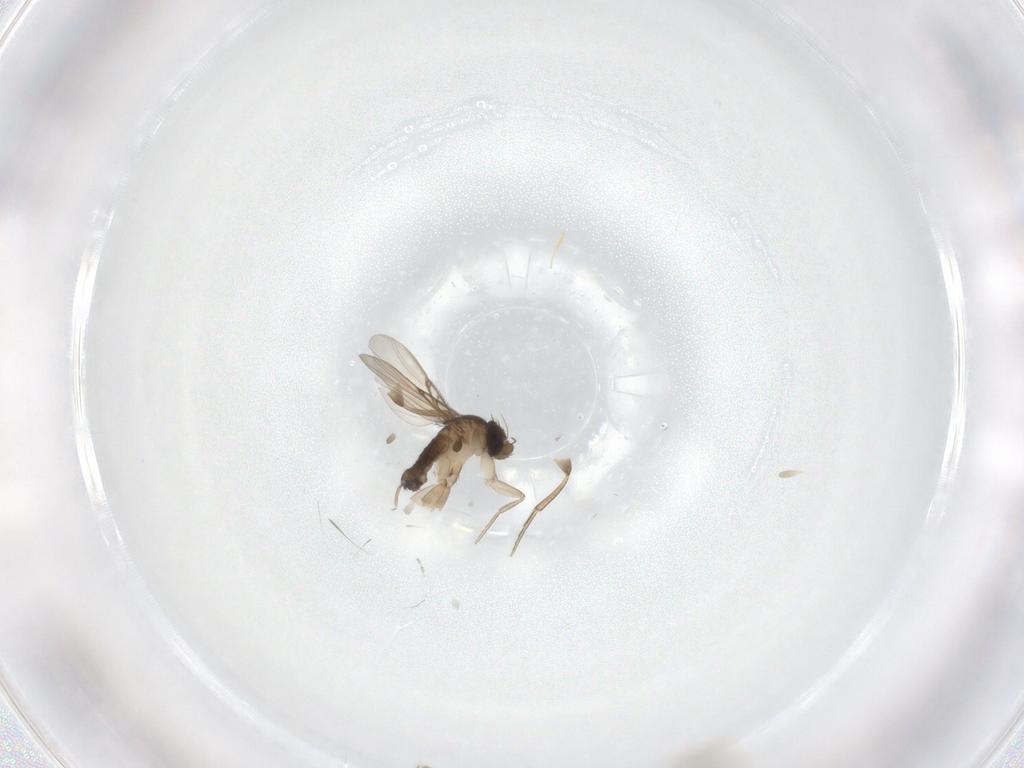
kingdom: Animalia
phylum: Arthropoda
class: Insecta
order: Diptera
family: Phoridae
